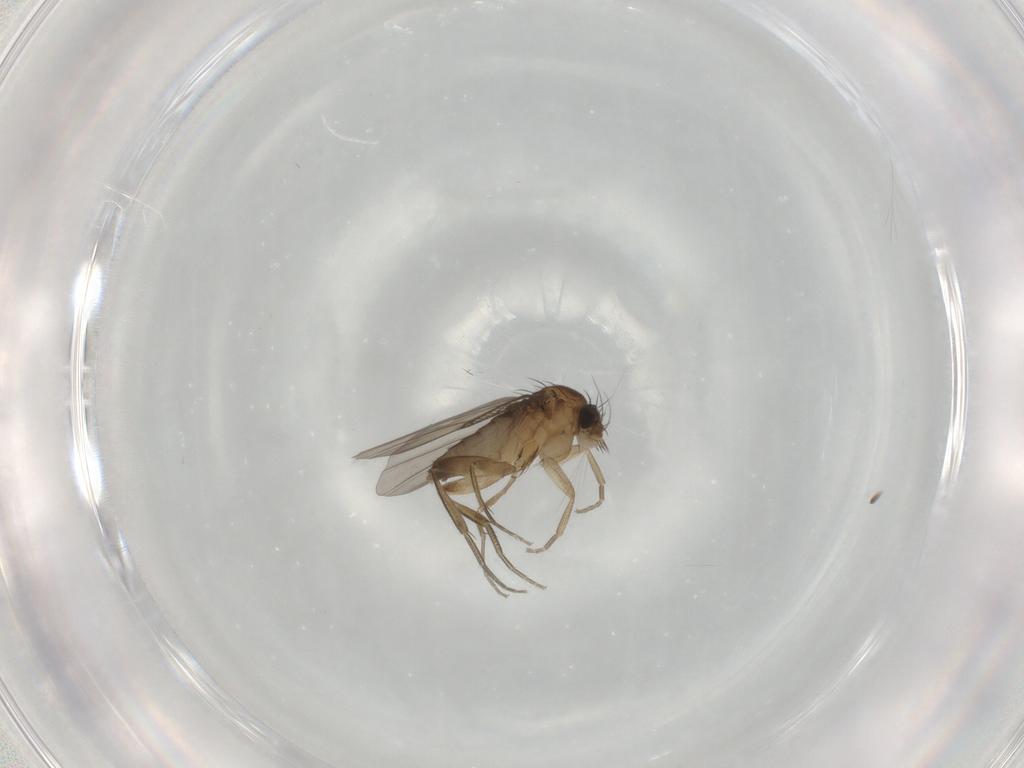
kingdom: Animalia
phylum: Arthropoda
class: Insecta
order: Diptera
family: Phoridae
